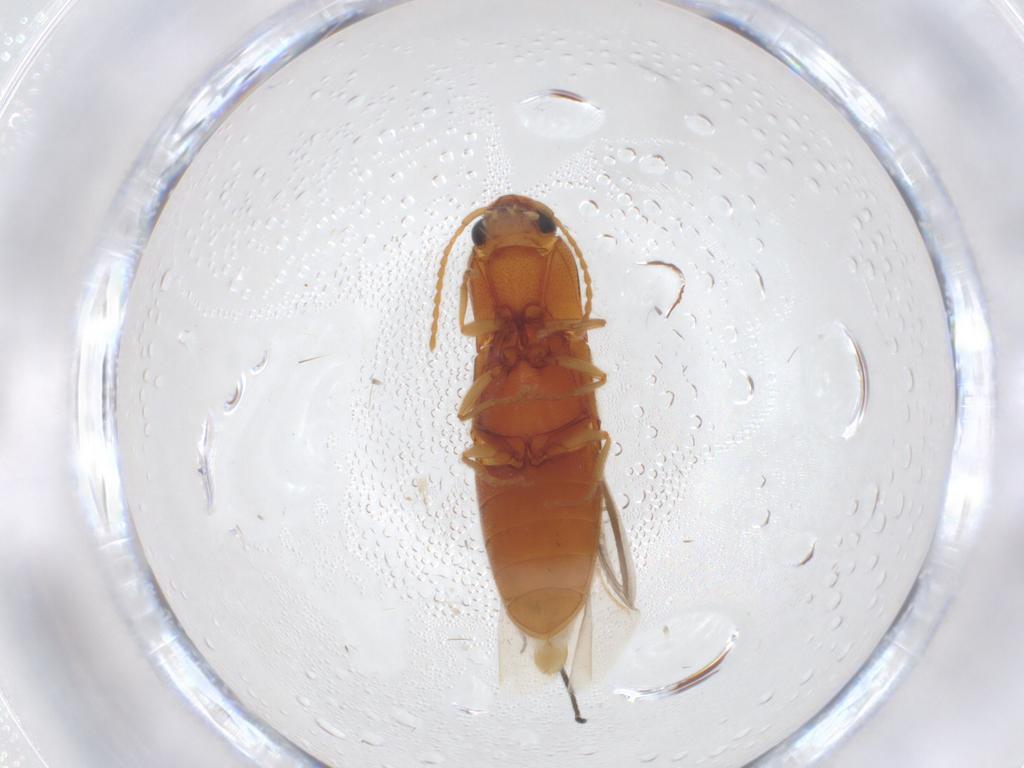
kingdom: Animalia
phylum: Arthropoda
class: Insecta
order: Coleoptera
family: Elateridae
